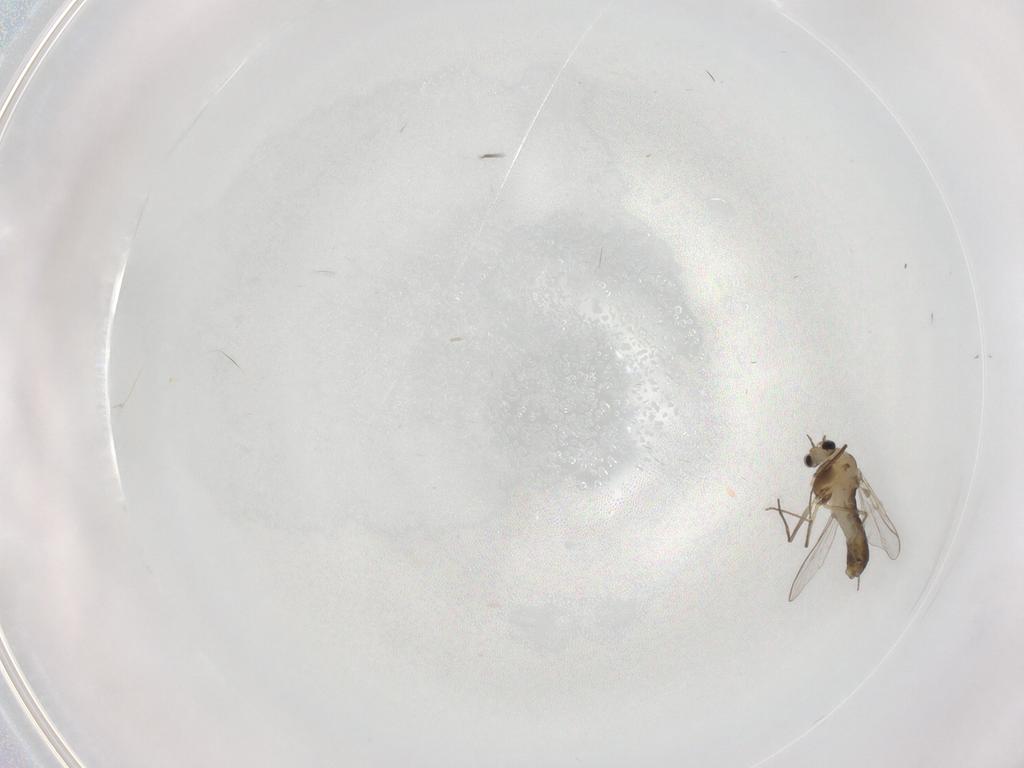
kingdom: Animalia
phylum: Arthropoda
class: Insecta
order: Diptera
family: Chironomidae
